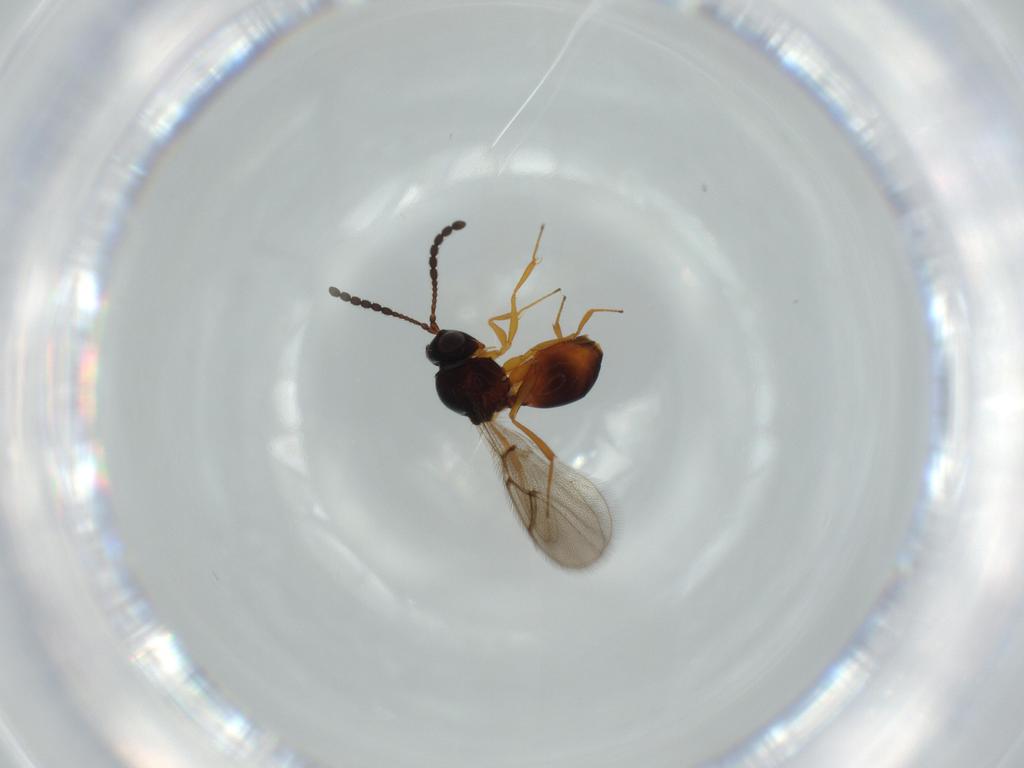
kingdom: Animalia
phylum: Arthropoda
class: Insecta
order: Hymenoptera
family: Figitidae
